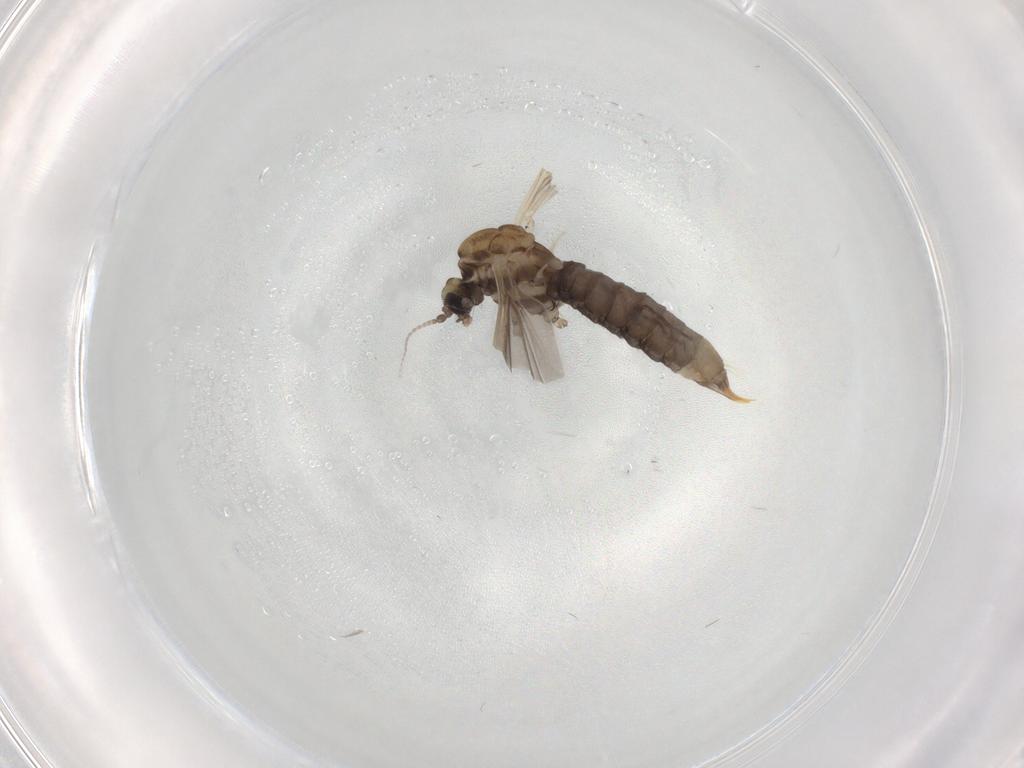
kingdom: Animalia
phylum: Arthropoda
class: Insecta
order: Diptera
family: Limoniidae
